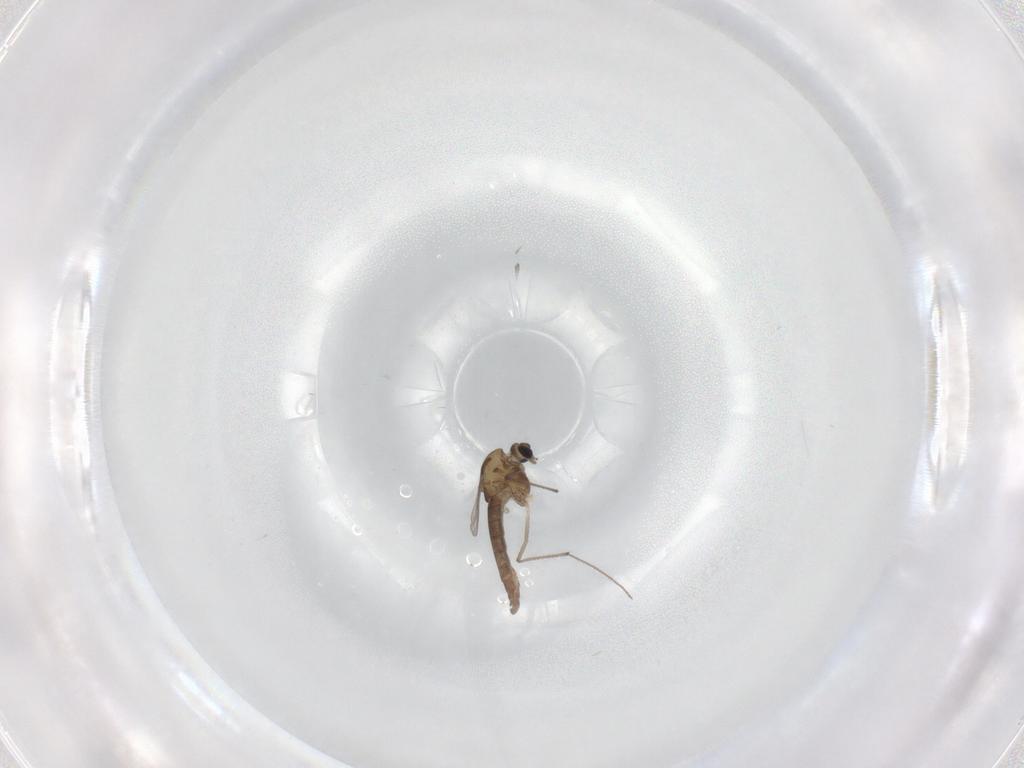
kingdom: Animalia
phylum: Arthropoda
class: Insecta
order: Diptera
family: Chironomidae
